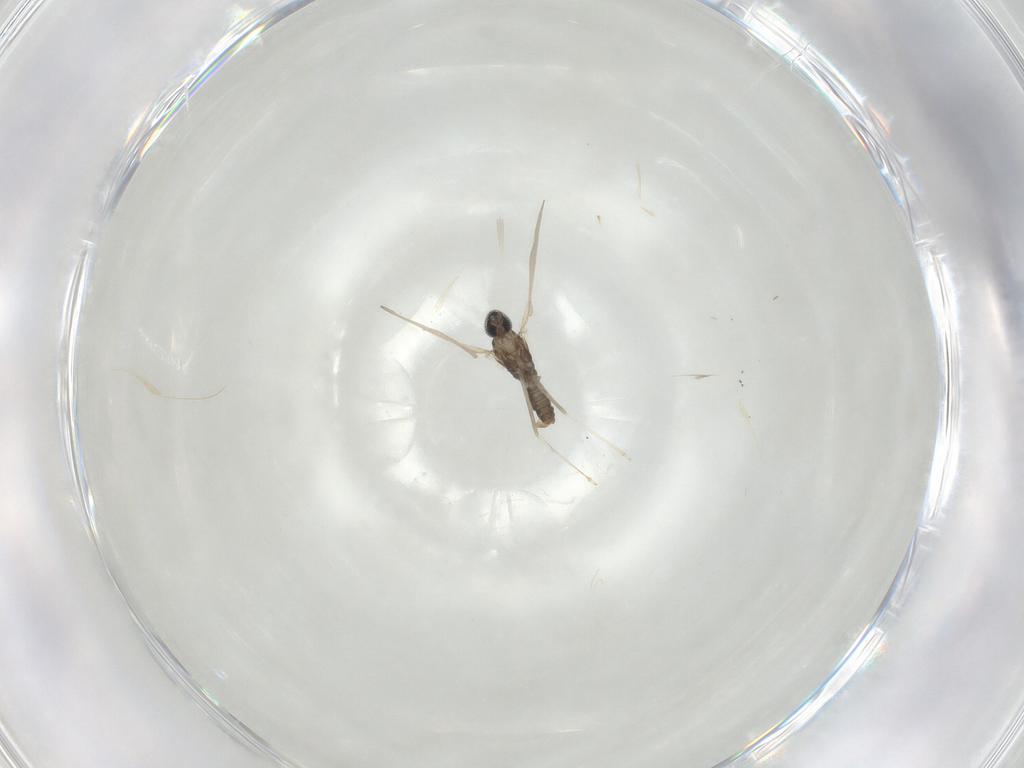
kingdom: Animalia
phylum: Arthropoda
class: Insecta
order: Diptera
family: Cecidomyiidae
